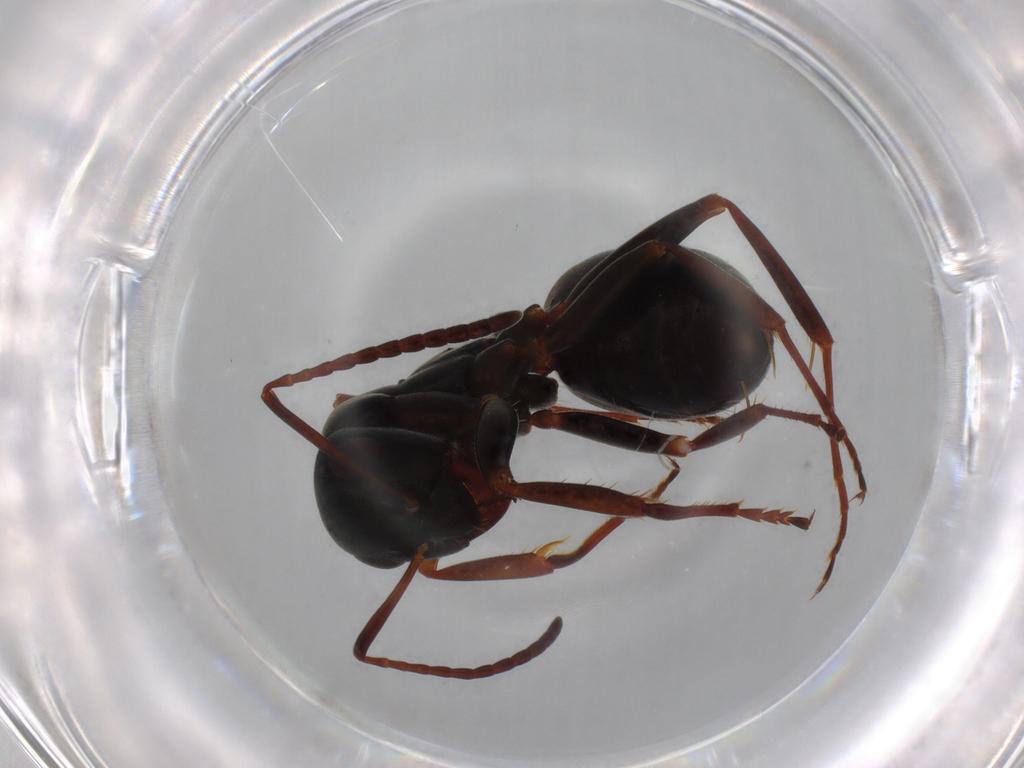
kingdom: Animalia
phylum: Arthropoda
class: Insecta
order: Hymenoptera
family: Formicidae
